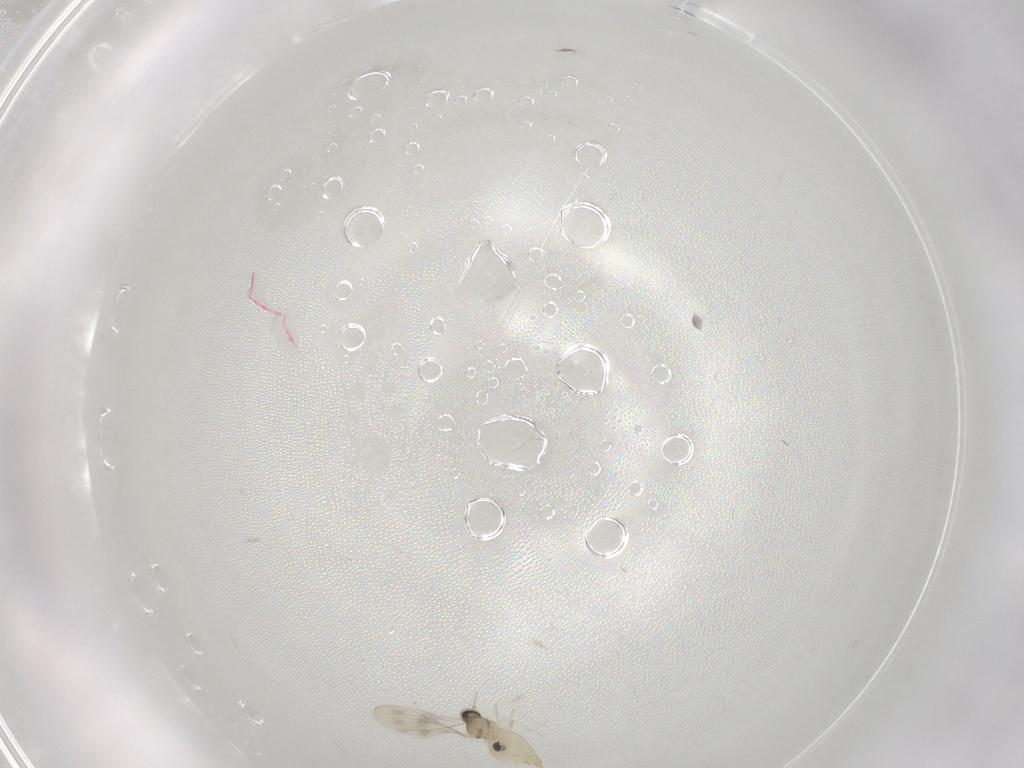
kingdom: Animalia
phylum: Arthropoda
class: Insecta
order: Diptera
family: Cecidomyiidae
